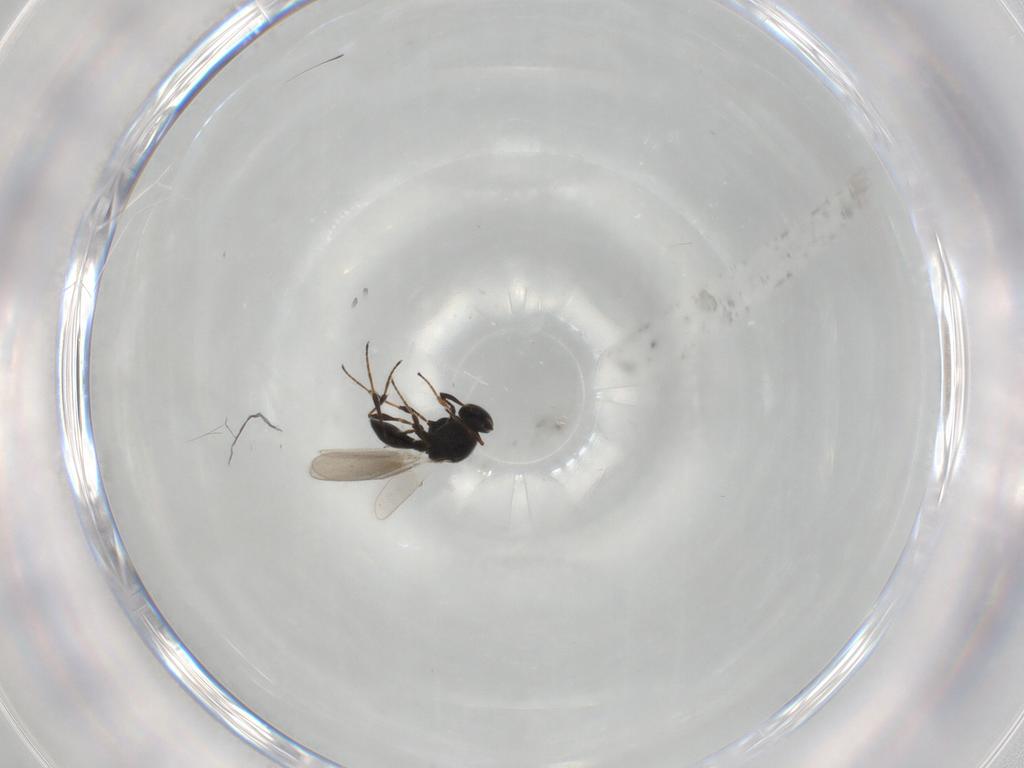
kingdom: Animalia
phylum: Arthropoda
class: Insecta
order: Hymenoptera
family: Platygastridae
